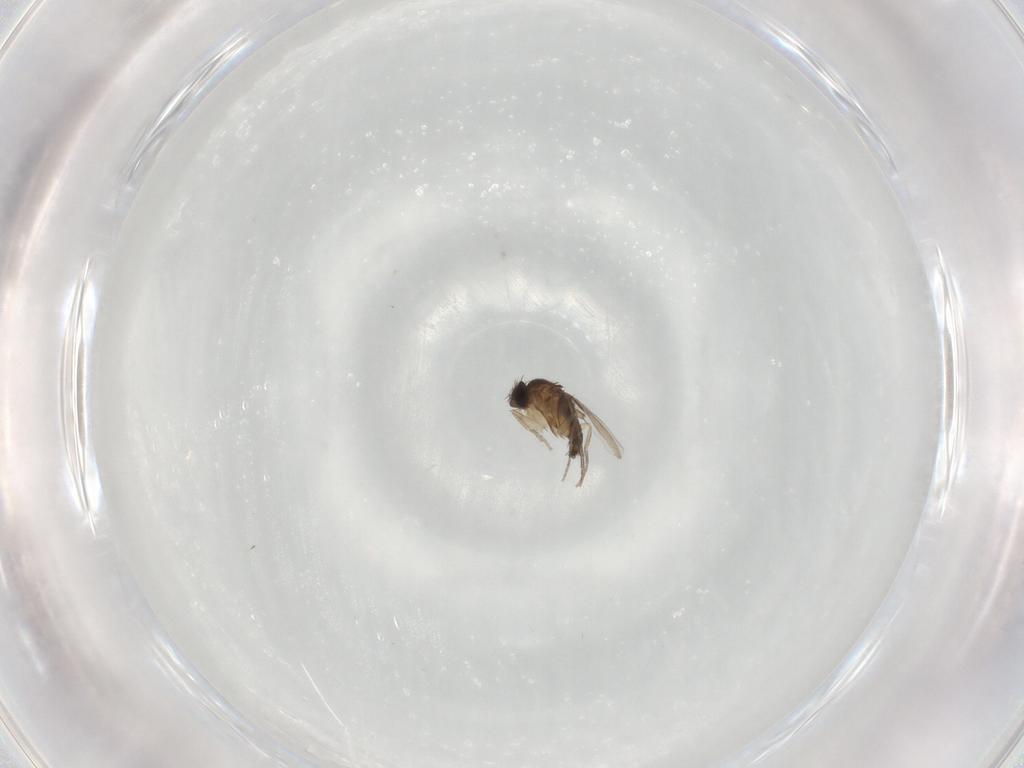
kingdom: Animalia
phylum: Arthropoda
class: Insecta
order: Diptera
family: Phoridae
